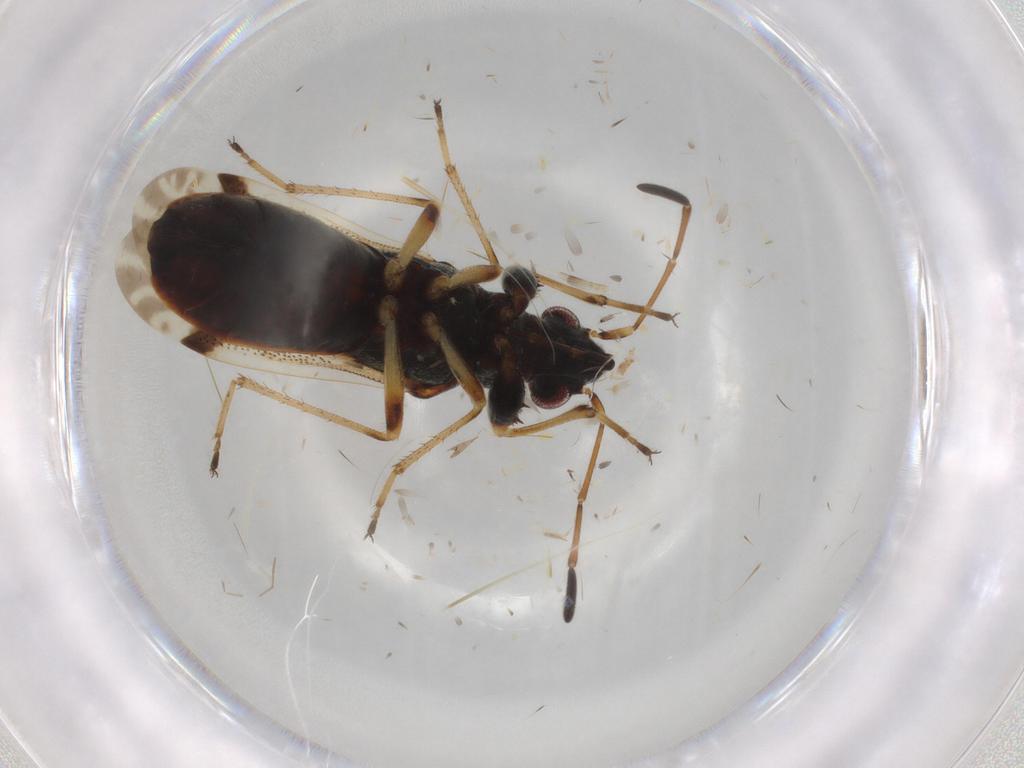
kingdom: Animalia
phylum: Arthropoda
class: Insecta
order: Hemiptera
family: Rhyparochromidae
